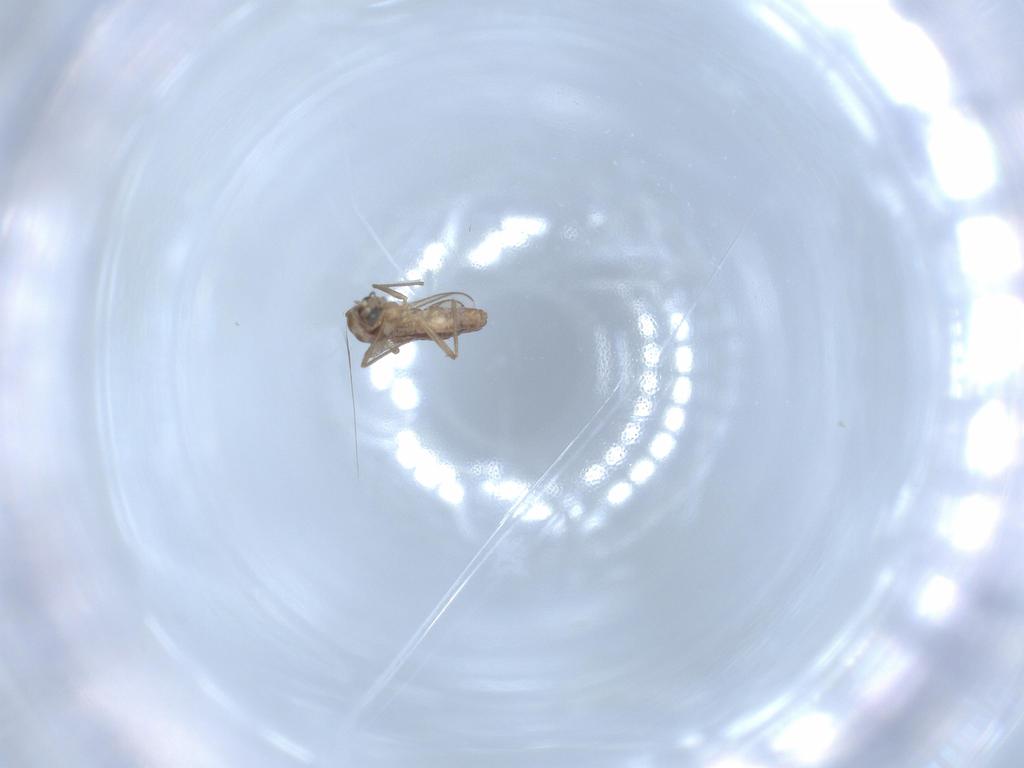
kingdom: Animalia
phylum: Arthropoda
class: Insecta
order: Diptera
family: Chironomidae
